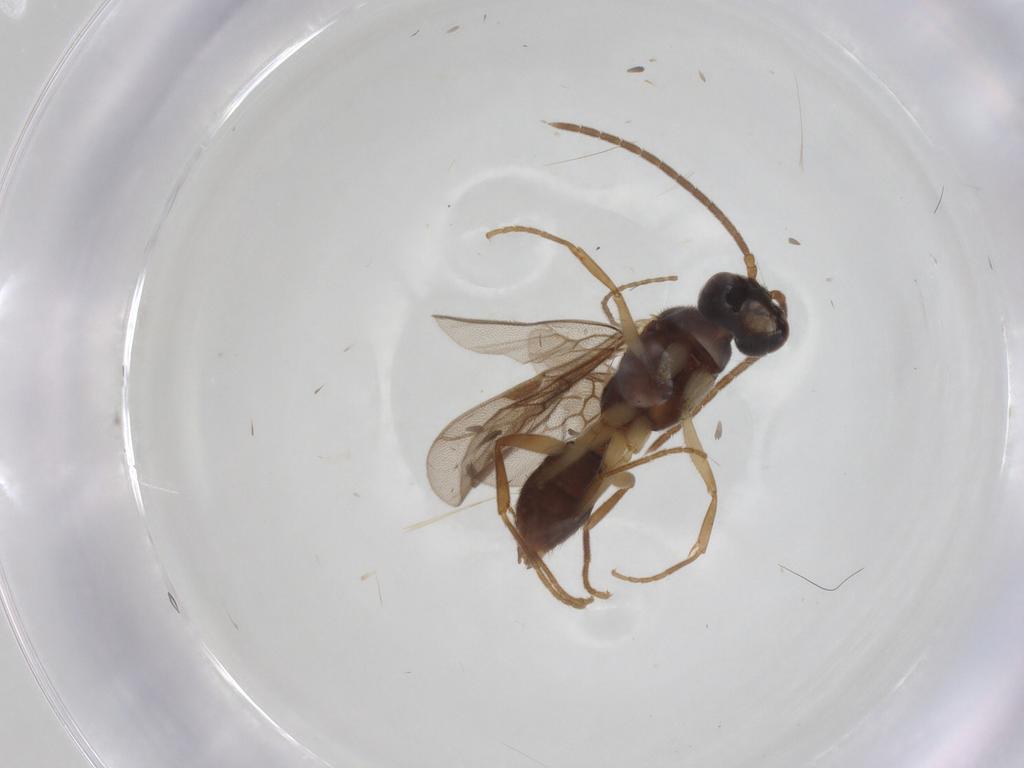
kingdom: Animalia
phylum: Arthropoda
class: Insecta
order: Hymenoptera
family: Formicidae
